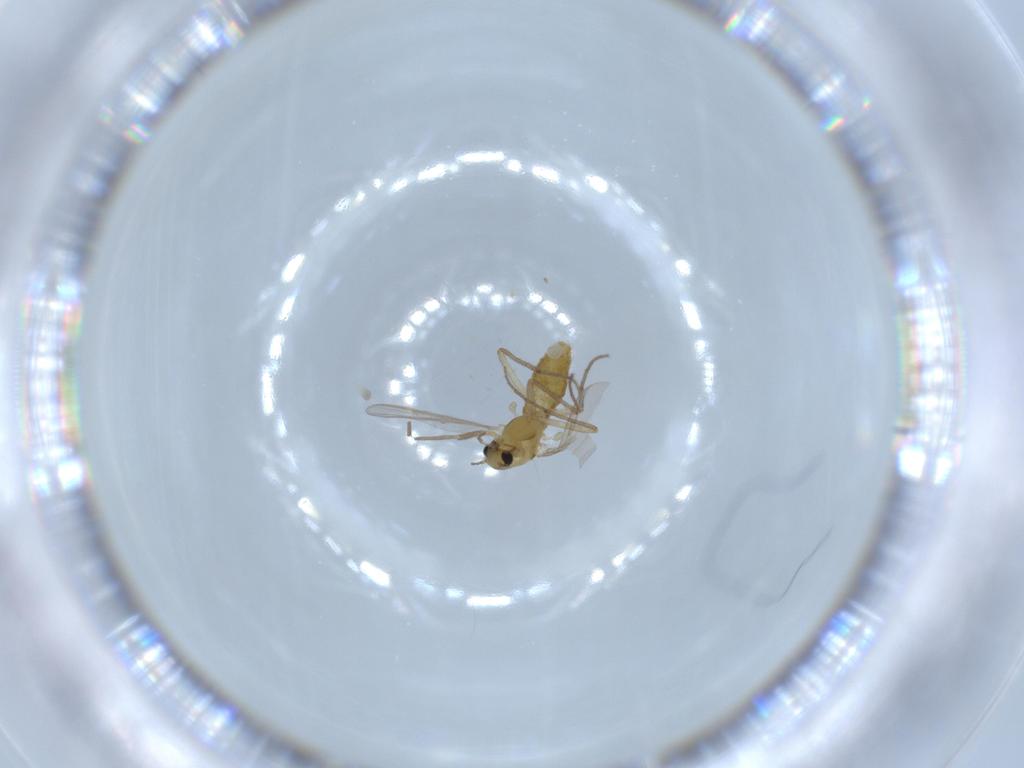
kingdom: Animalia
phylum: Arthropoda
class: Insecta
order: Diptera
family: Chironomidae
